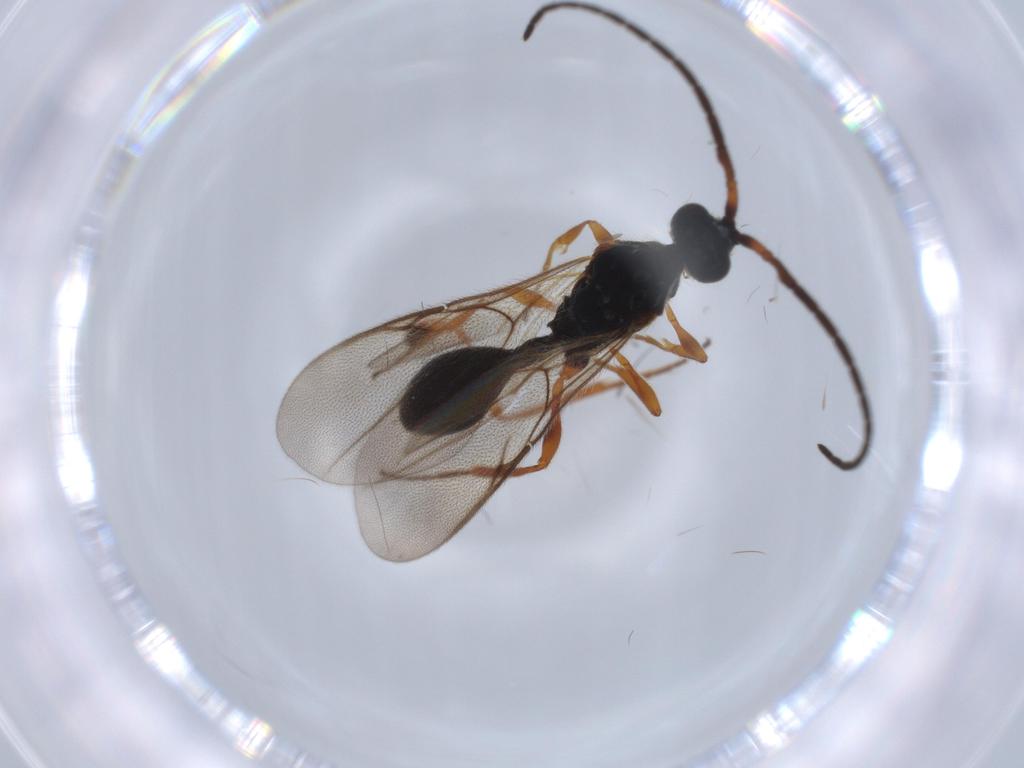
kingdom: Animalia
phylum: Arthropoda
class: Insecta
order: Hymenoptera
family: Diapriidae
